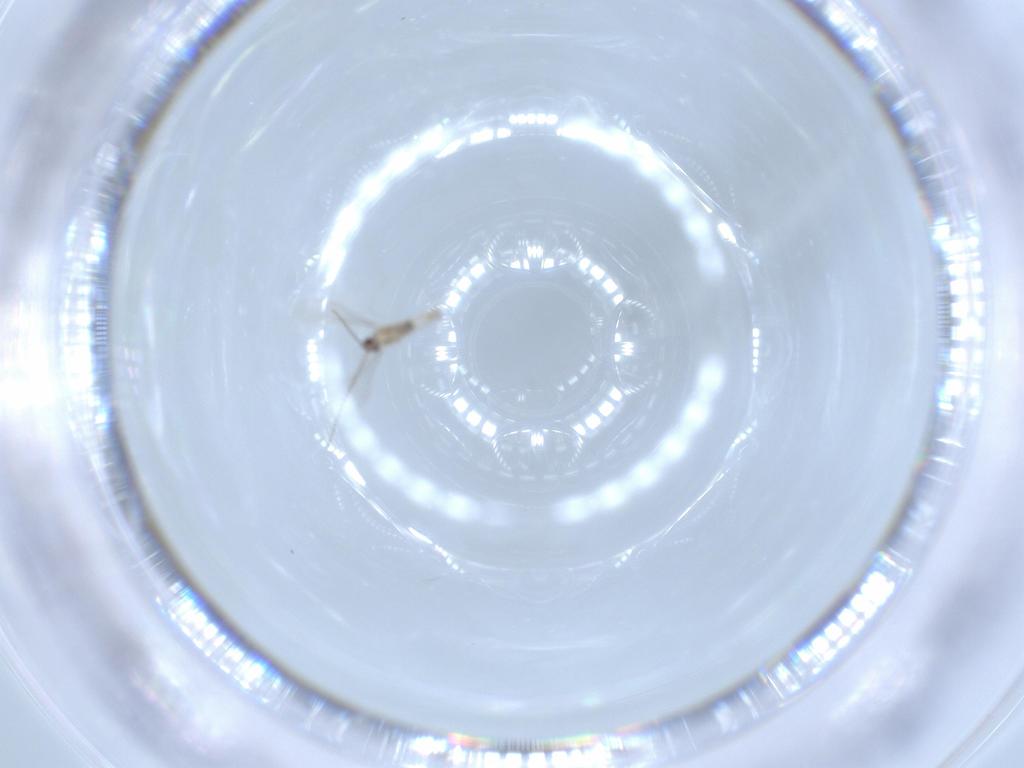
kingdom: Animalia
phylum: Arthropoda
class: Insecta
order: Diptera
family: Cecidomyiidae
